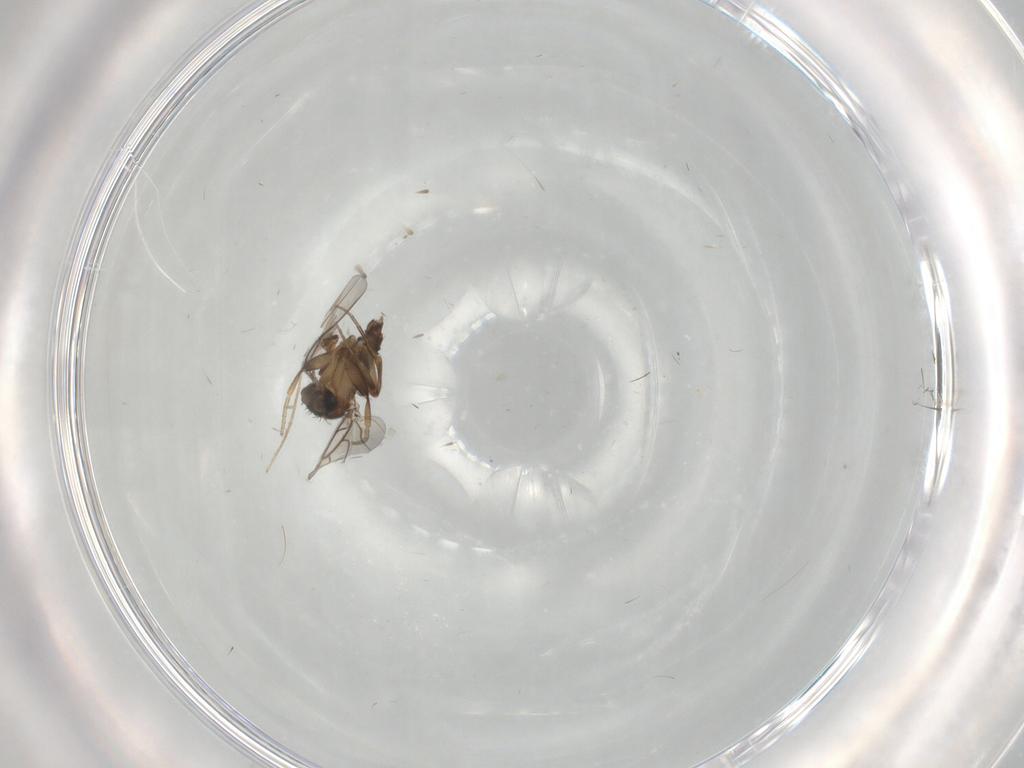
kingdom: Animalia
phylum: Arthropoda
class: Insecta
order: Diptera
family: Phoridae
